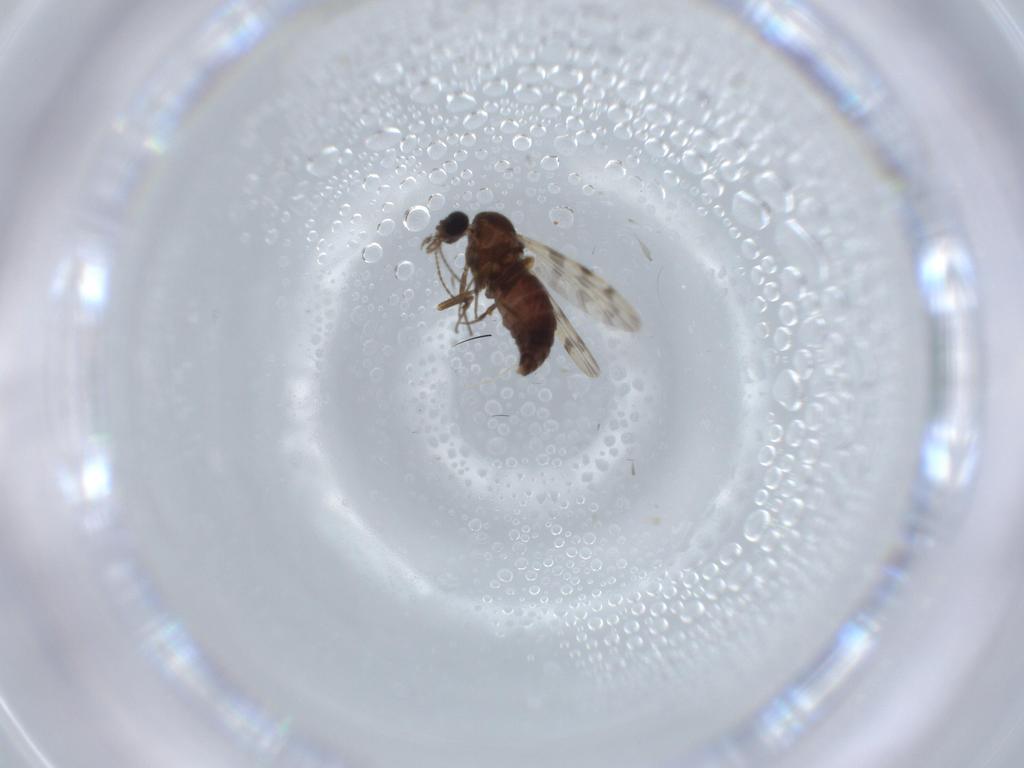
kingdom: Animalia
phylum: Arthropoda
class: Insecta
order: Diptera
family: Ceratopogonidae
